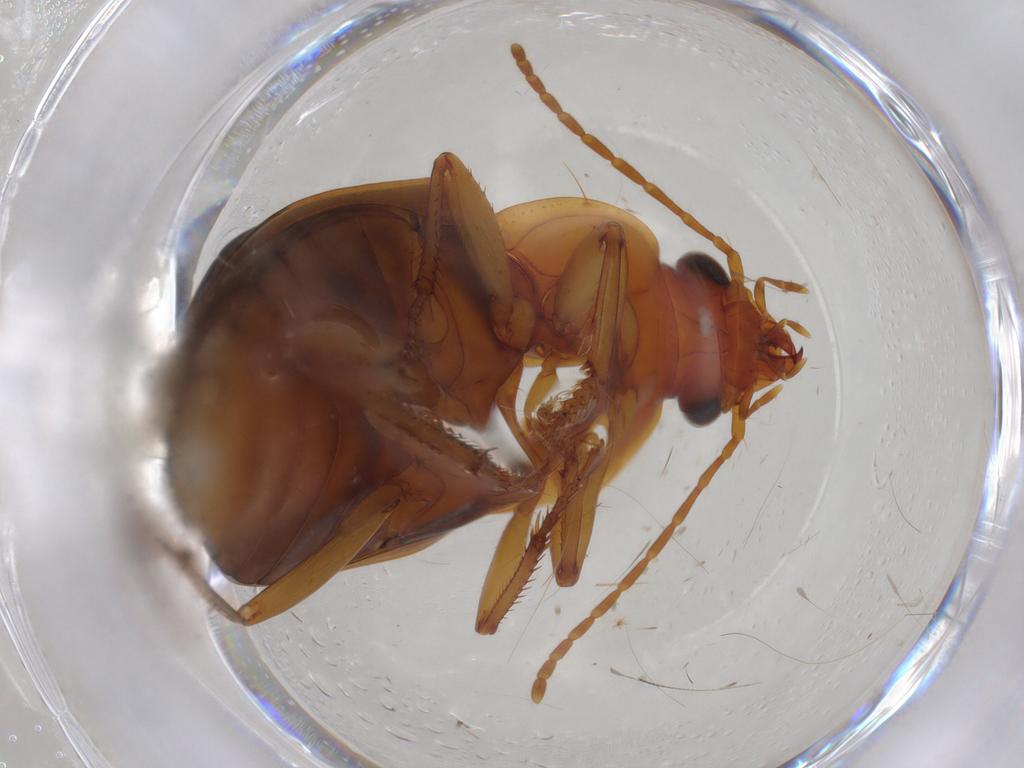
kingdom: Animalia
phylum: Arthropoda
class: Insecta
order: Coleoptera
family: Carabidae
